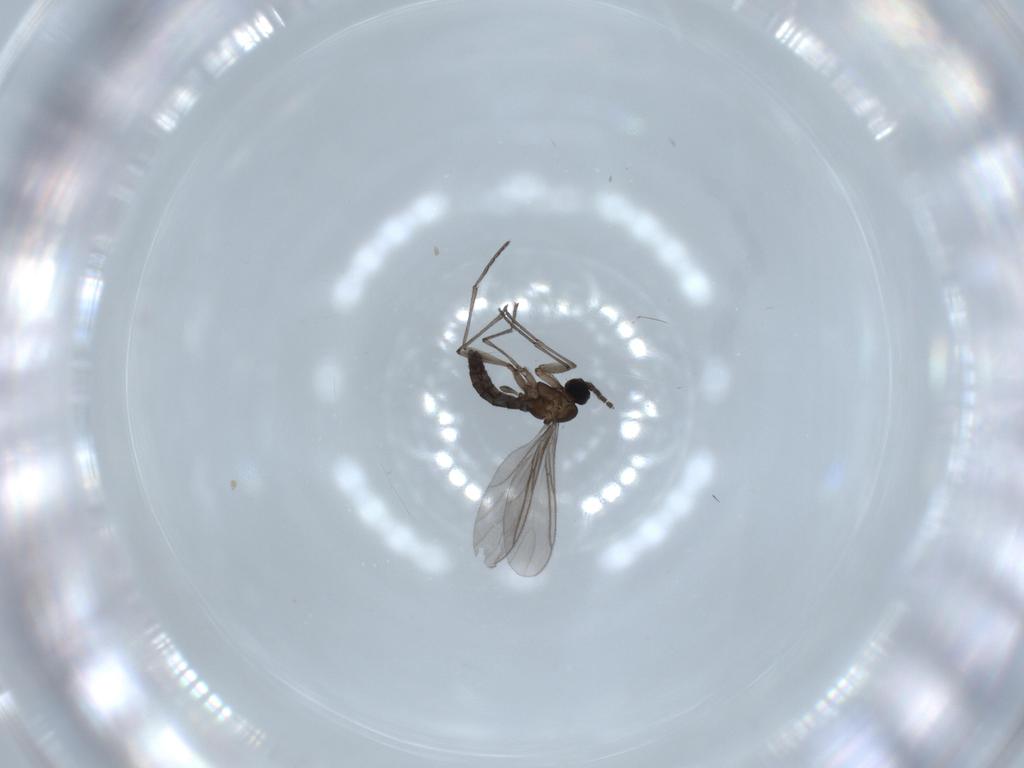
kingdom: Animalia
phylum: Arthropoda
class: Insecta
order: Diptera
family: Sciaridae
